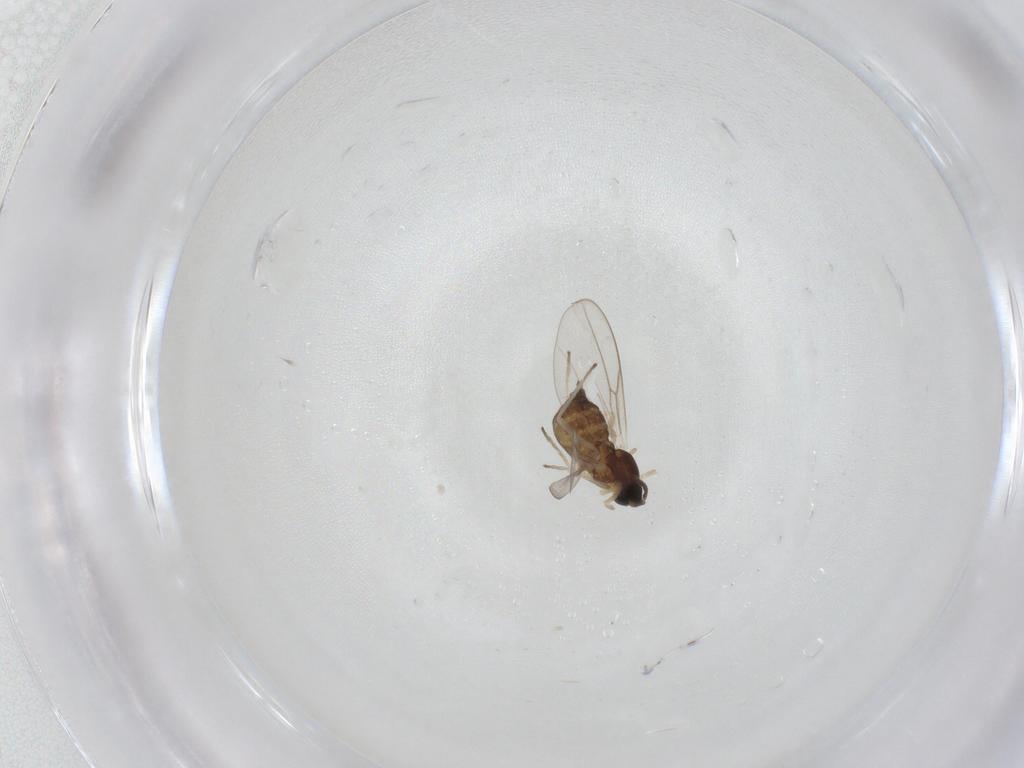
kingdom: Animalia
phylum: Arthropoda
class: Insecta
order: Diptera
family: Cecidomyiidae
